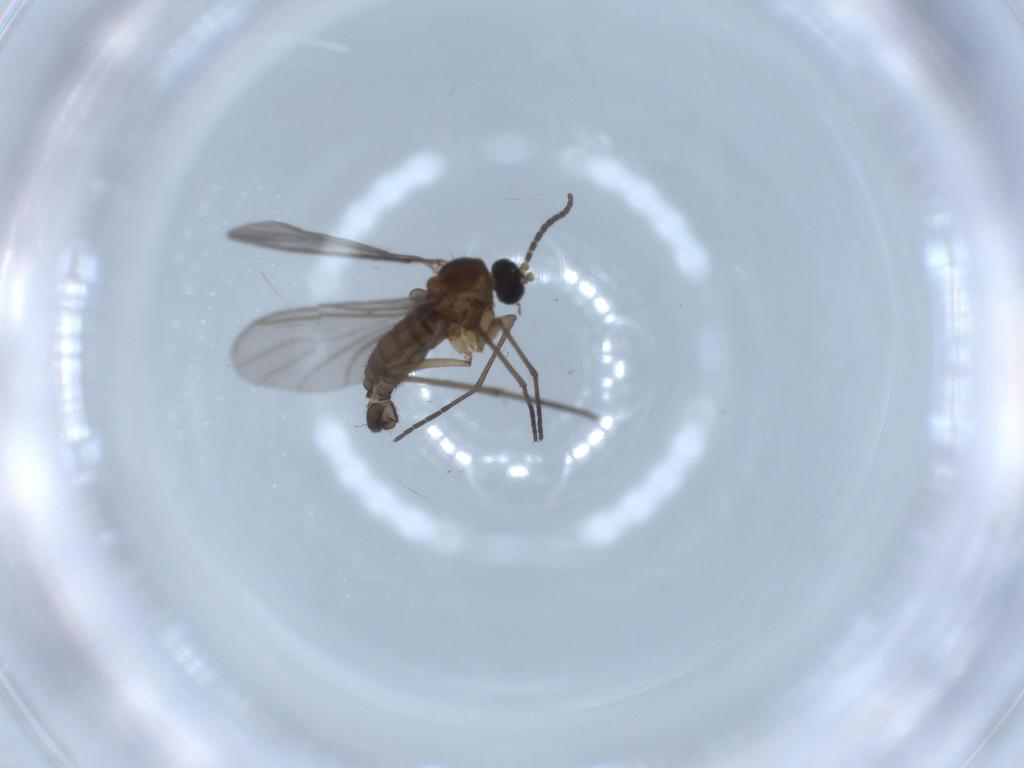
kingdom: Animalia
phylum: Arthropoda
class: Insecta
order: Diptera
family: Sciaridae
